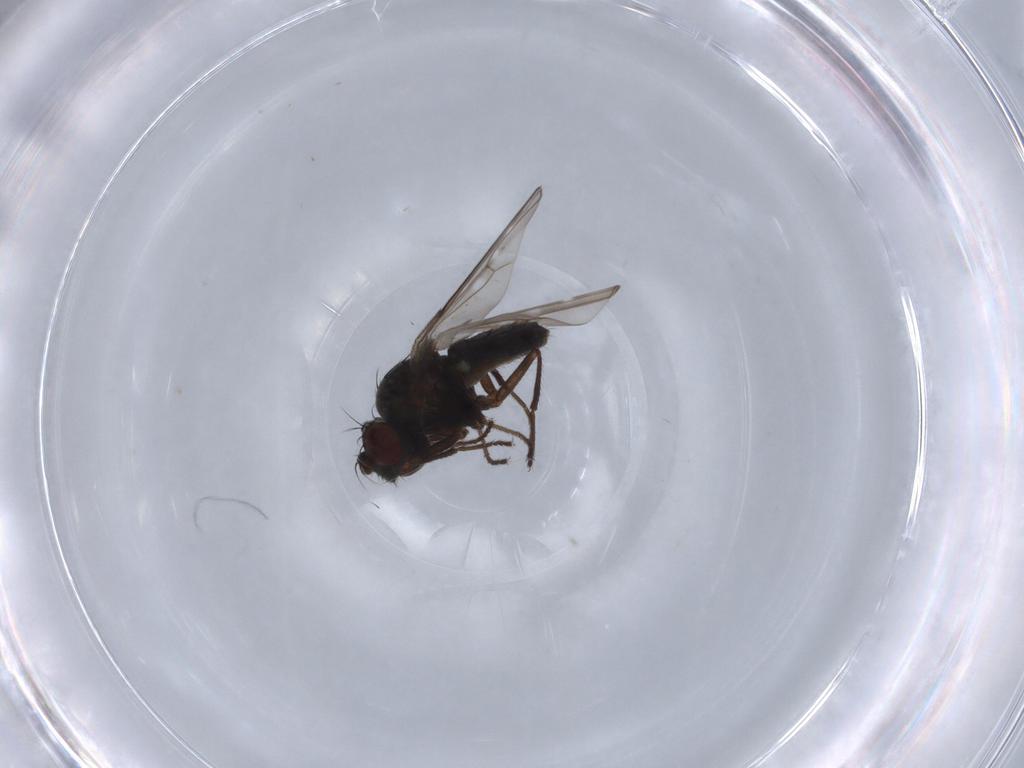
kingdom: Animalia
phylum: Arthropoda
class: Insecta
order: Diptera
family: Ephydridae
